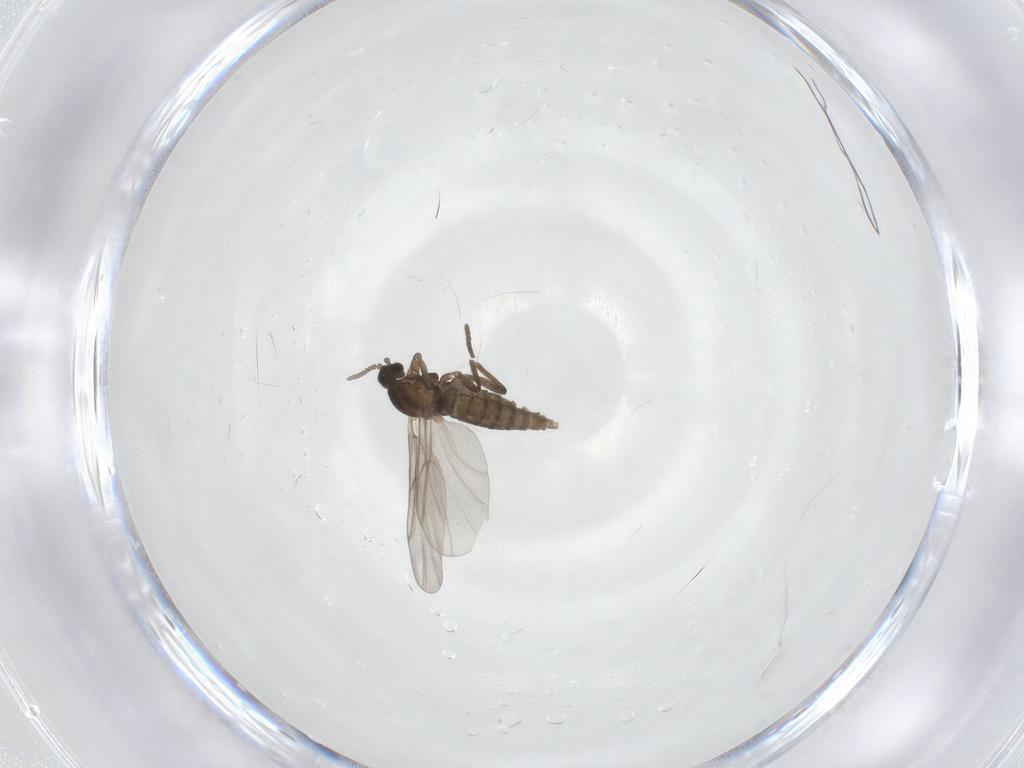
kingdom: Animalia
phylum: Arthropoda
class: Insecta
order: Diptera
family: Cecidomyiidae
